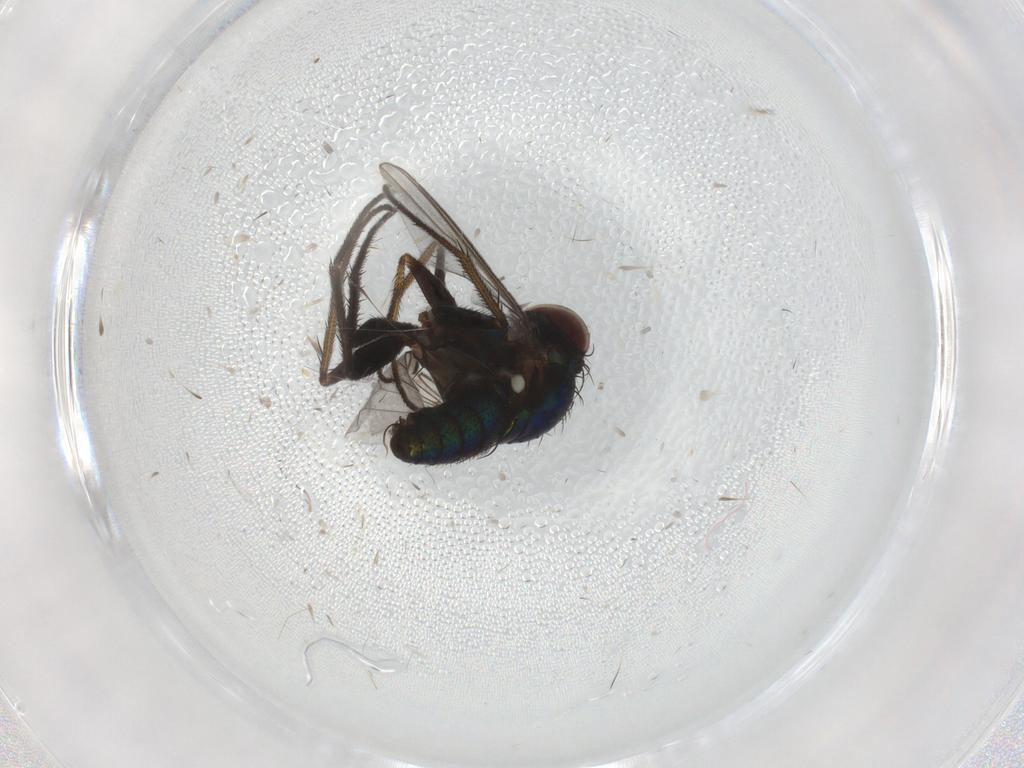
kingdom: Animalia
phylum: Arthropoda
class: Insecta
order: Diptera
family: Dolichopodidae
